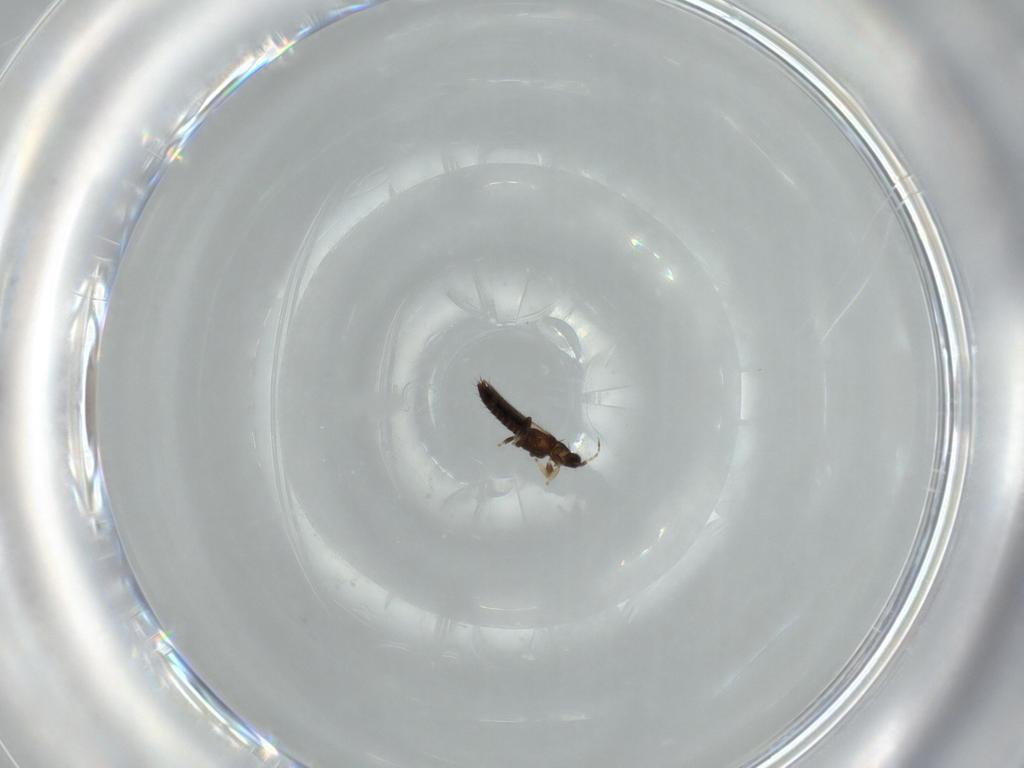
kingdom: Animalia
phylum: Arthropoda
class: Insecta
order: Thysanoptera
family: Thripidae
